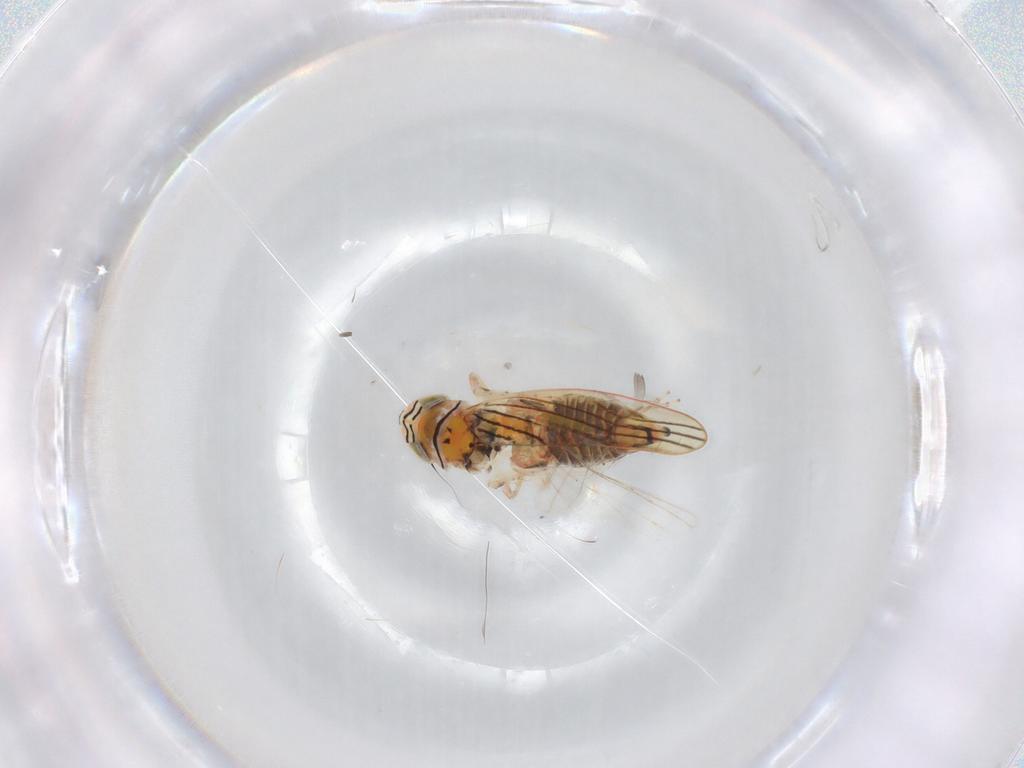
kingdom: Animalia
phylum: Arthropoda
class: Insecta
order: Hemiptera
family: Cicadellidae
